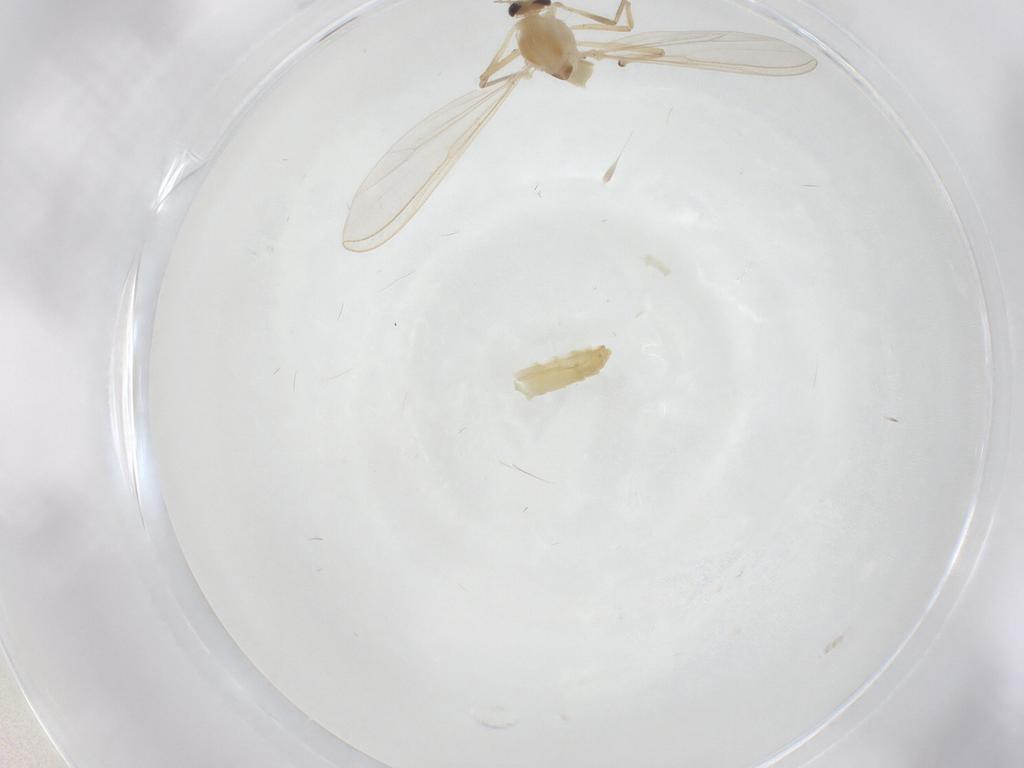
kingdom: Animalia
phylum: Arthropoda
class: Insecta
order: Diptera
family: Chironomidae
